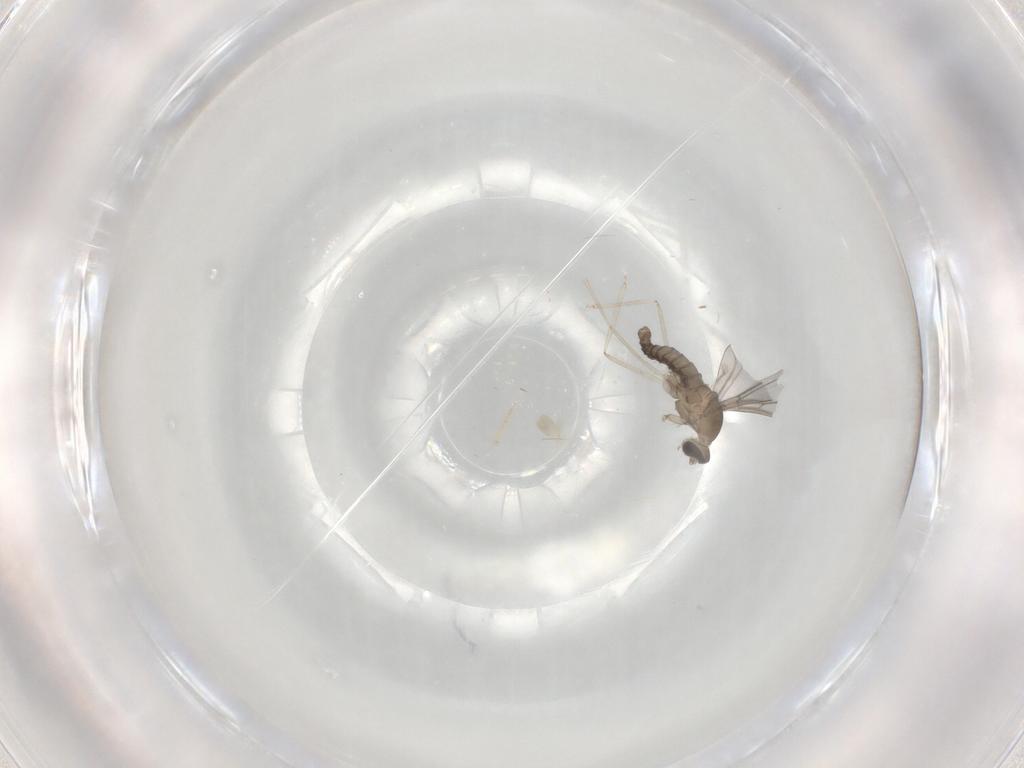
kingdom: Animalia
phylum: Arthropoda
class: Insecta
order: Diptera
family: Cecidomyiidae
